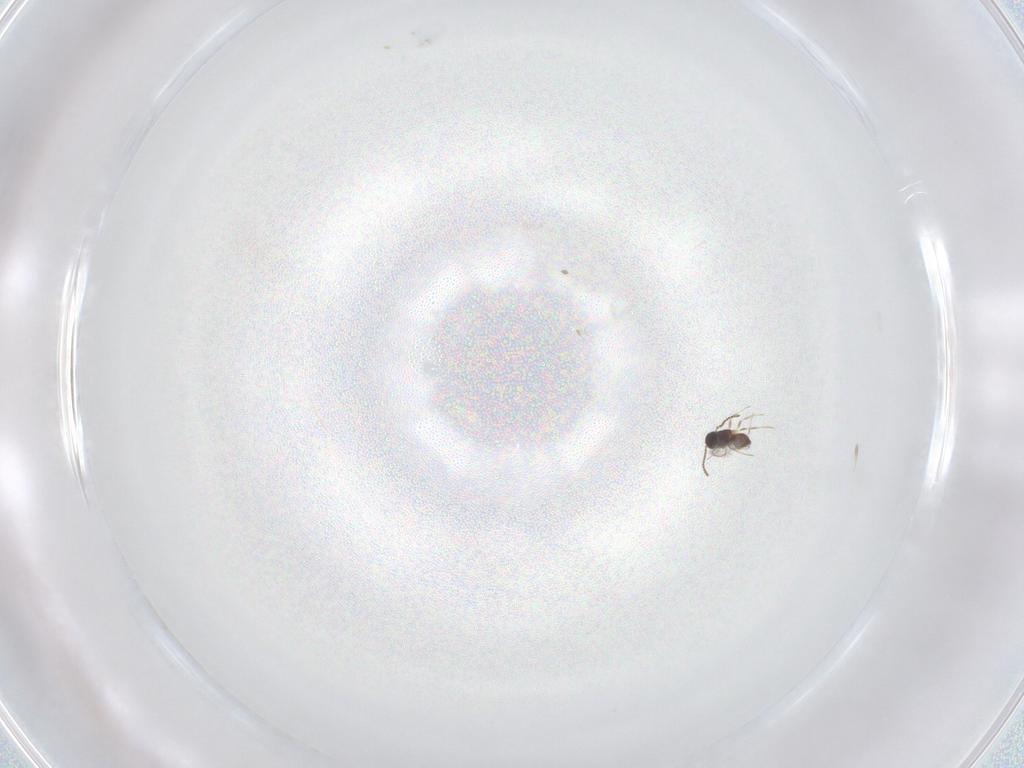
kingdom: Animalia
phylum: Arthropoda
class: Insecta
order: Hymenoptera
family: Scelionidae
